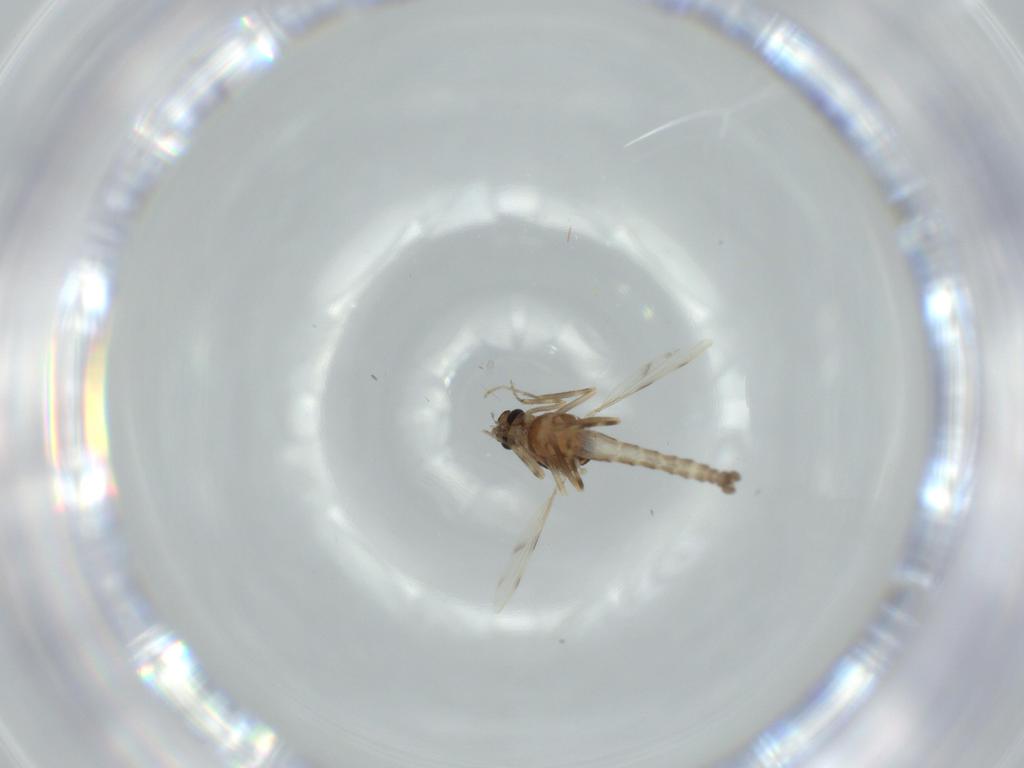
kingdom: Animalia
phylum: Arthropoda
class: Insecta
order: Diptera
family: Ceratopogonidae
